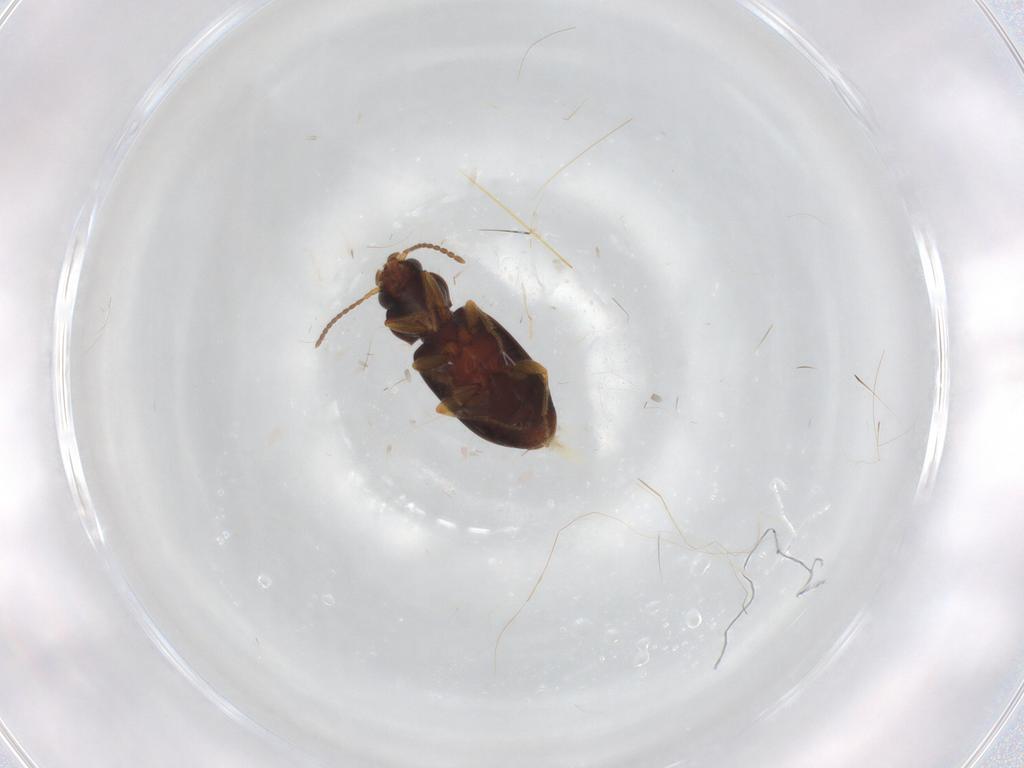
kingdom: Animalia
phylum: Arthropoda
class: Insecta
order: Coleoptera
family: Carabidae
